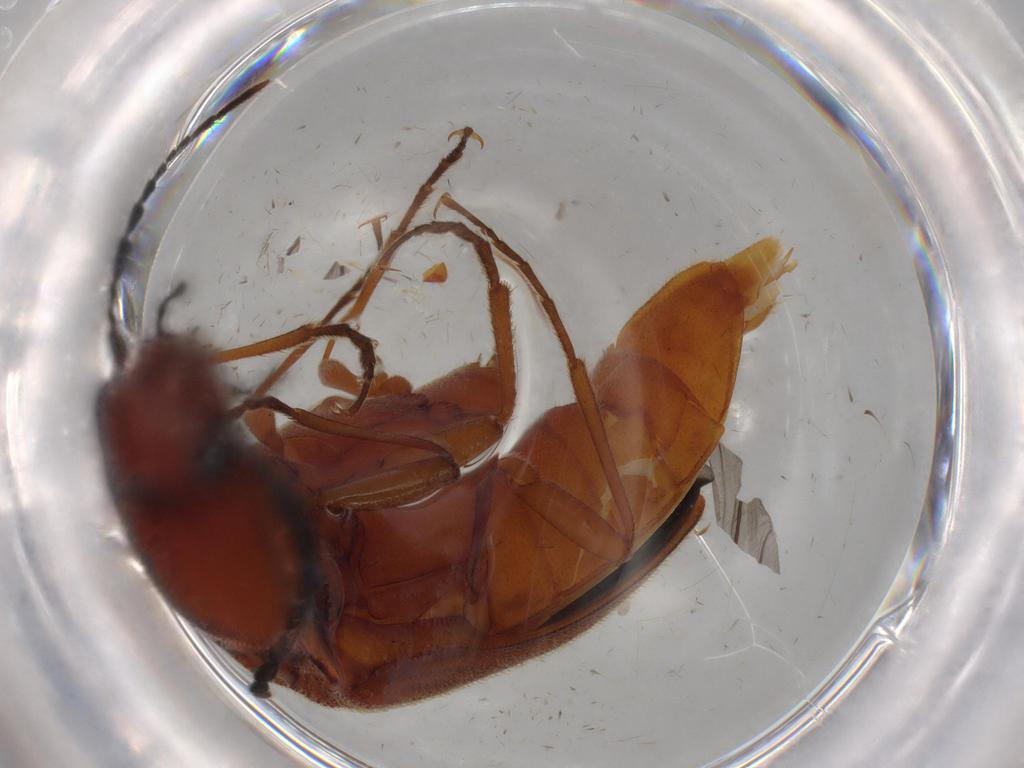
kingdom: Animalia
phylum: Arthropoda
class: Insecta
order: Coleoptera
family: Elateridae
